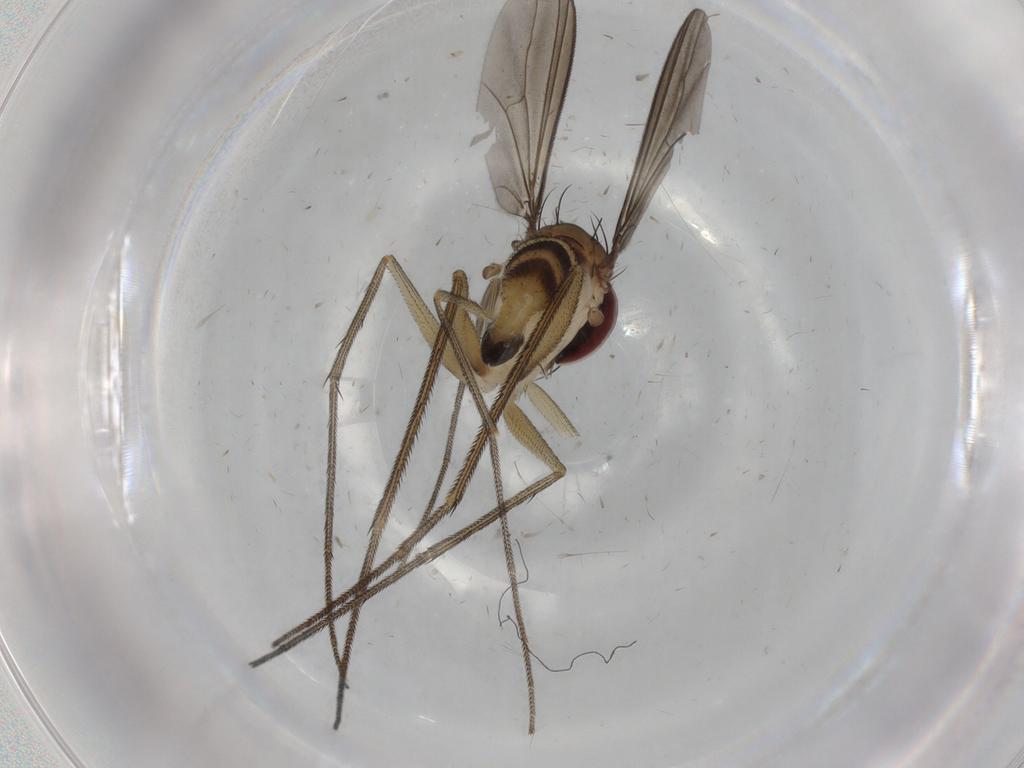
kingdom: Animalia
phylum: Arthropoda
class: Insecta
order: Diptera
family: Dolichopodidae
